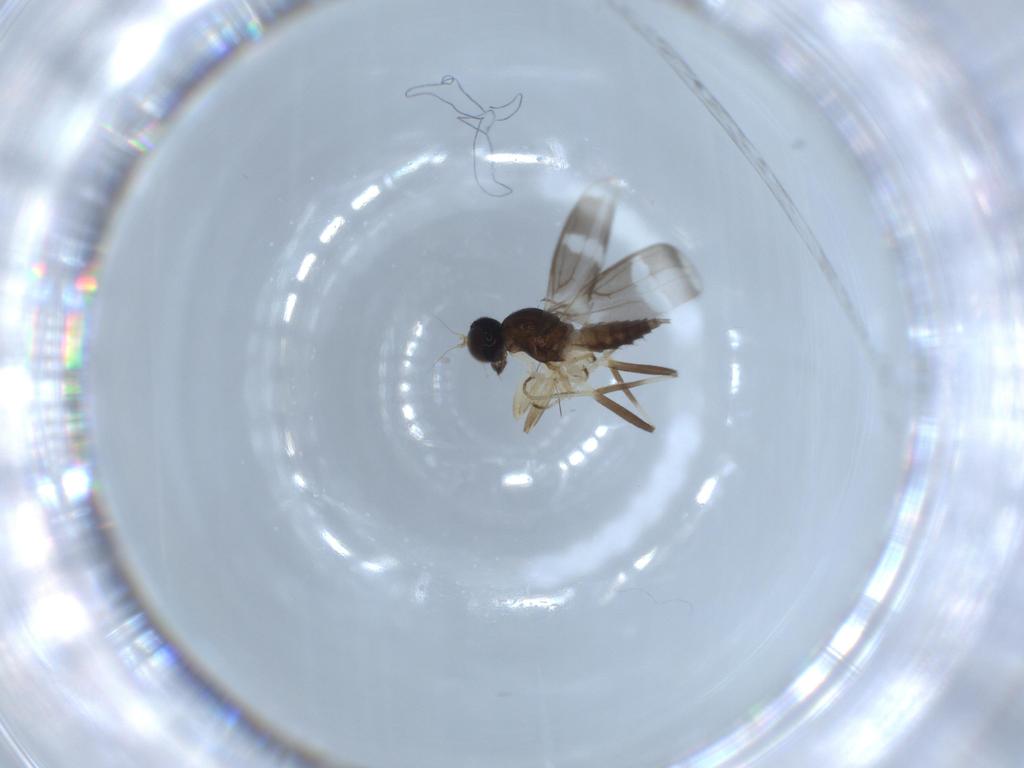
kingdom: Animalia
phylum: Arthropoda
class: Insecta
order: Diptera
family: Hybotidae
